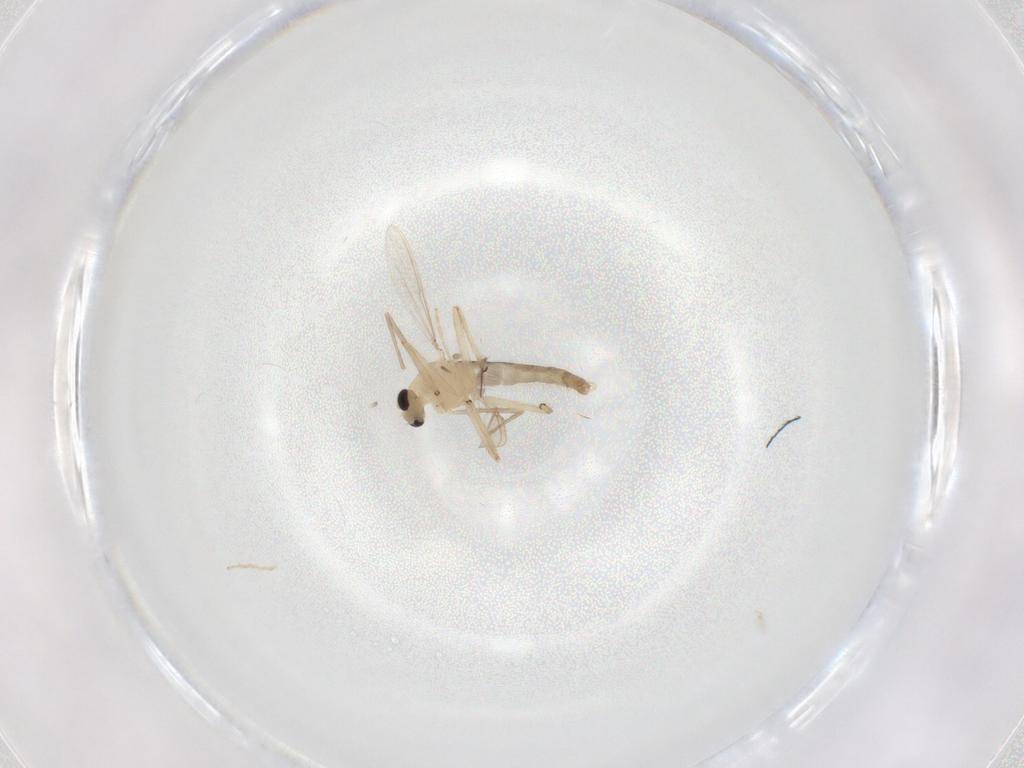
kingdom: Animalia
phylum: Arthropoda
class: Insecta
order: Diptera
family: Chironomidae
